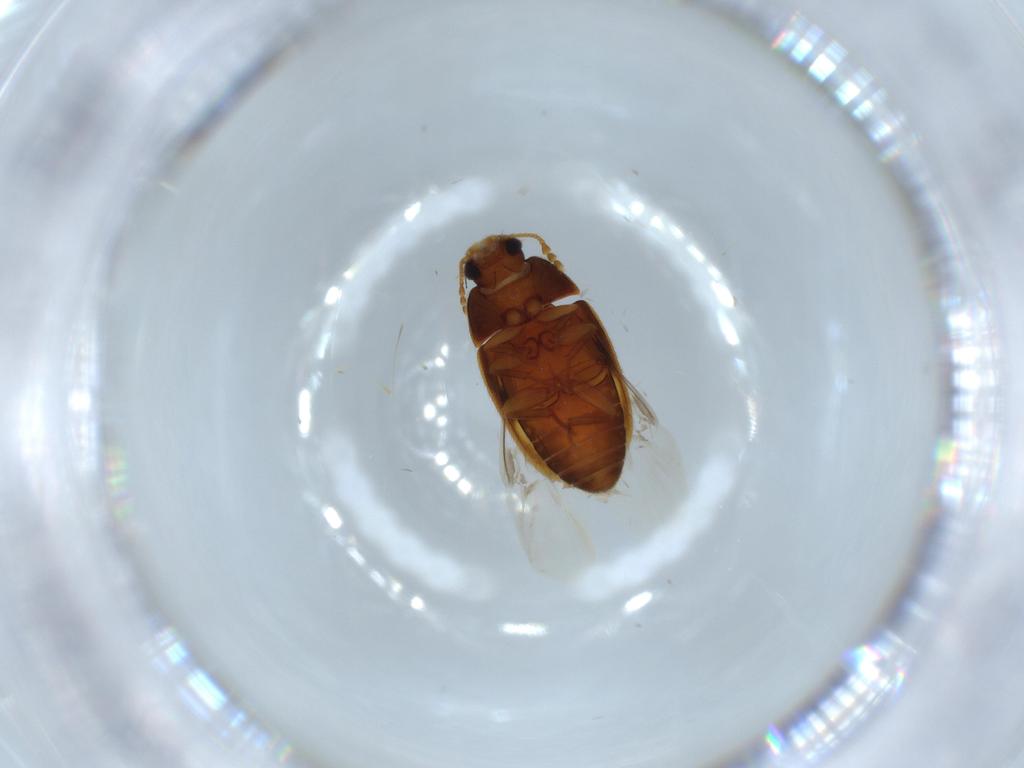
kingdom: Animalia
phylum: Arthropoda
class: Insecta
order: Coleoptera
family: Mycetophagidae
